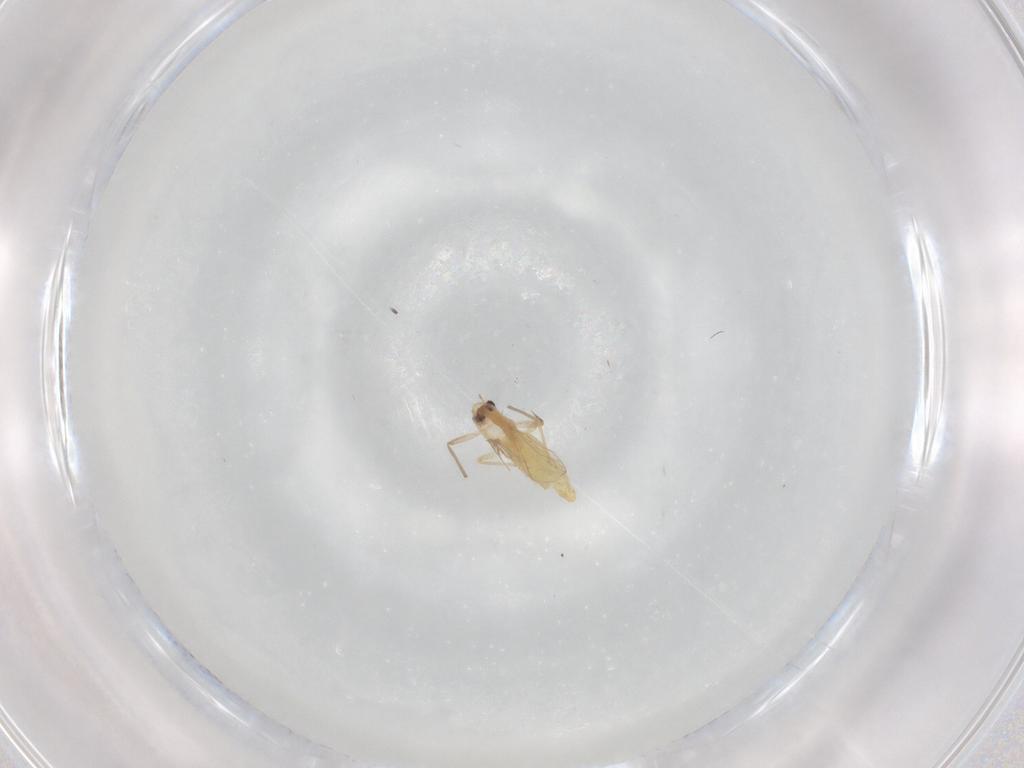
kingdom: Animalia
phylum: Arthropoda
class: Insecta
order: Diptera
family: Chironomidae
